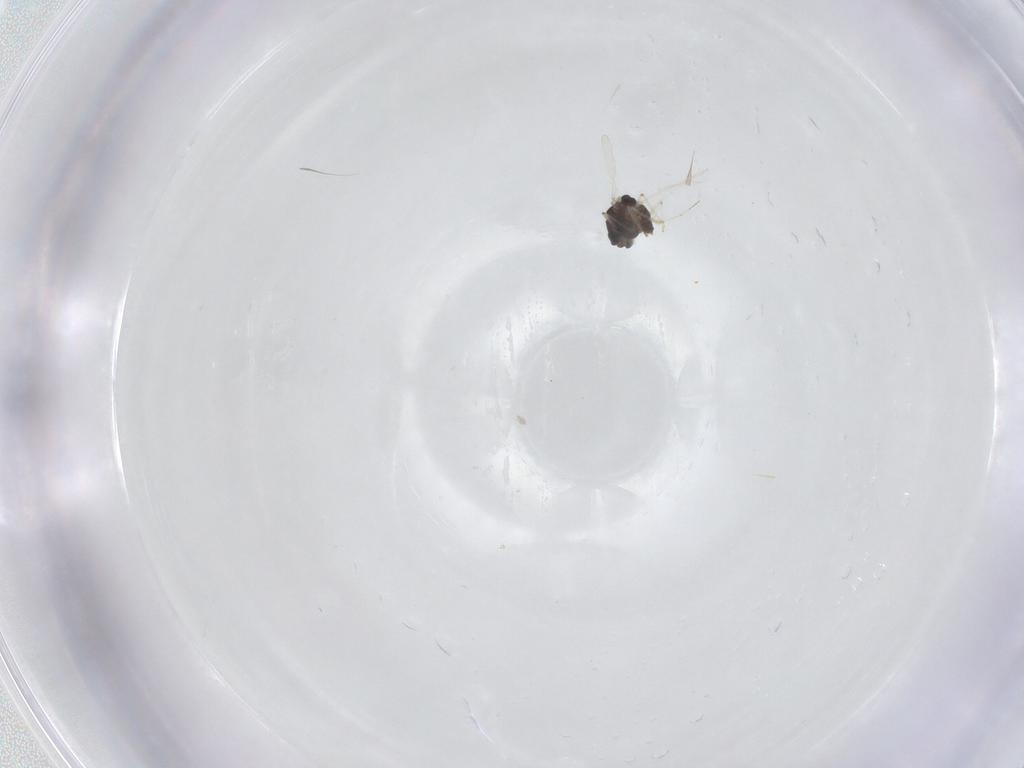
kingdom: Animalia
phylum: Arthropoda
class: Insecta
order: Diptera
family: Chironomidae
